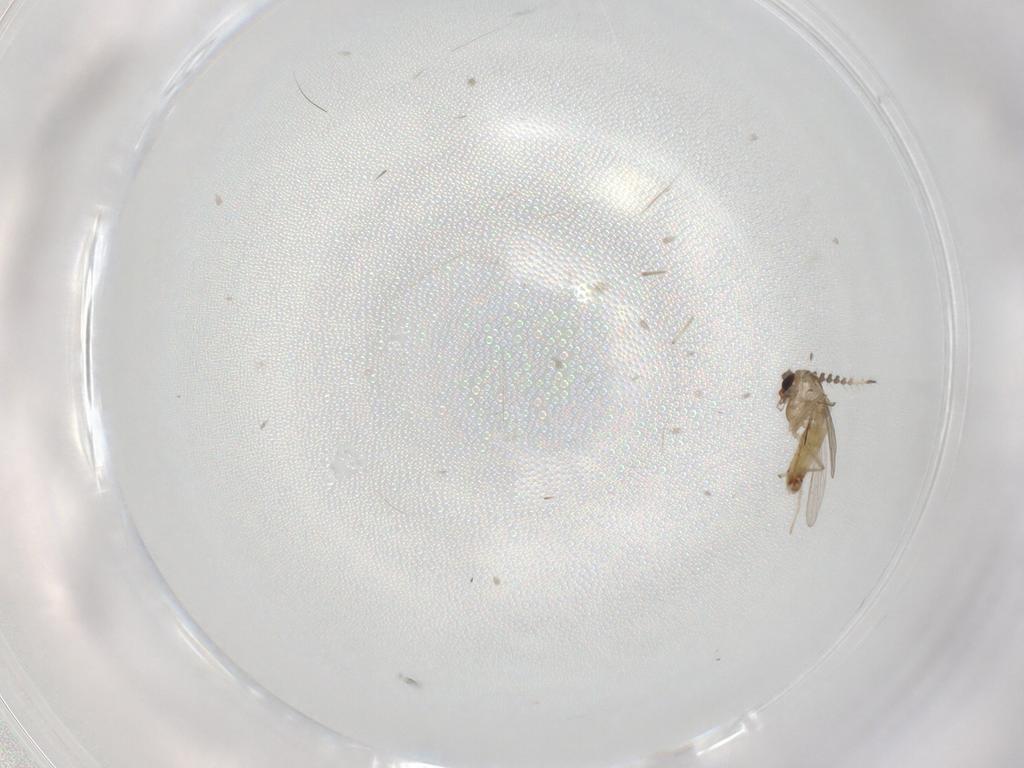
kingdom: Animalia
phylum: Arthropoda
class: Insecta
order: Diptera
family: Chironomidae
